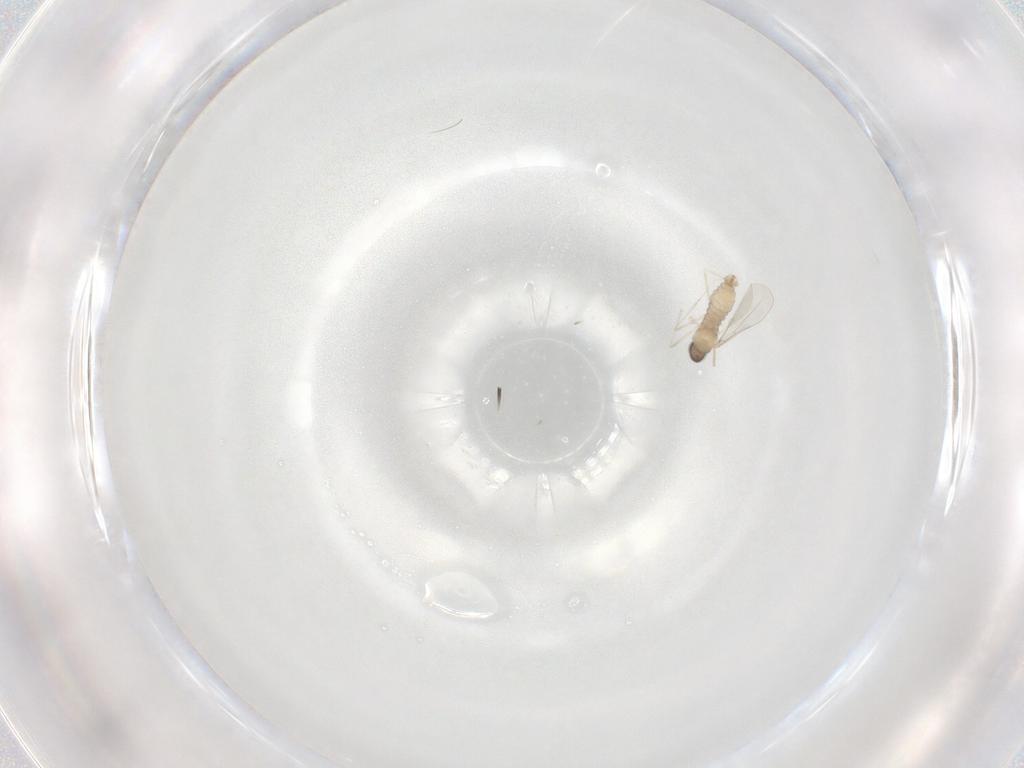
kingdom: Animalia
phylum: Arthropoda
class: Insecta
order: Diptera
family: Cecidomyiidae
